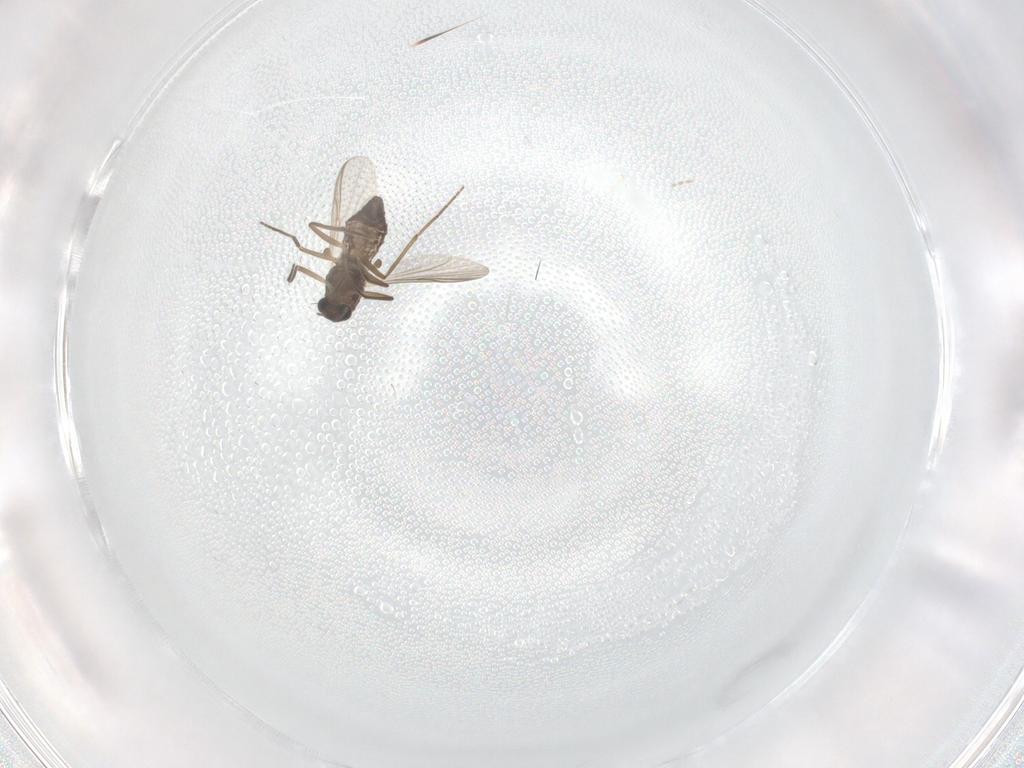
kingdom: Animalia
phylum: Arthropoda
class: Insecta
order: Diptera
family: Chironomidae
